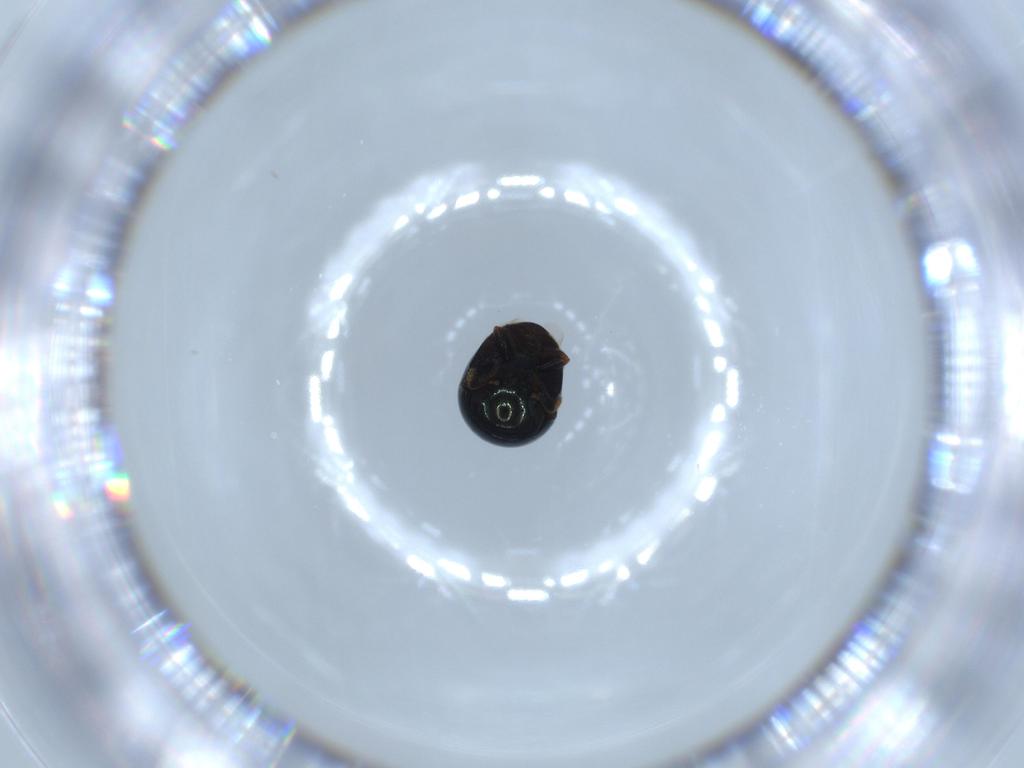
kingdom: Animalia
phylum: Arthropoda
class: Insecta
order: Coleoptera
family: Cybocephalidae
